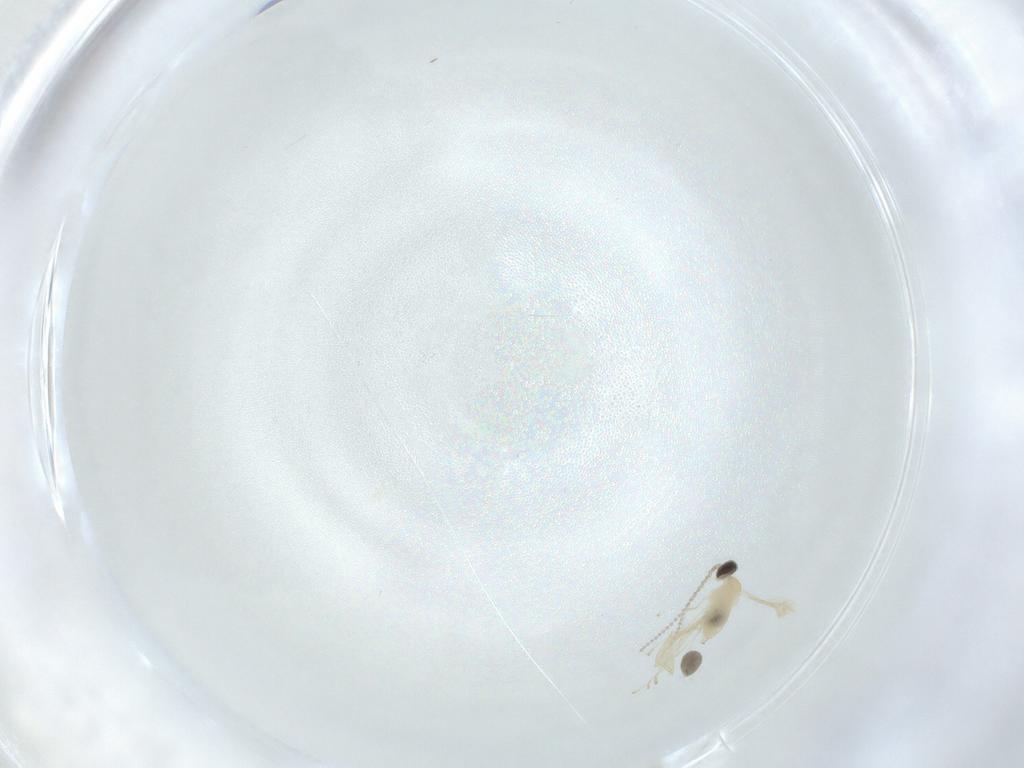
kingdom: Animalia
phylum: Arthropoda
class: Insecta
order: Diptera
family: Cecidomyiidae
